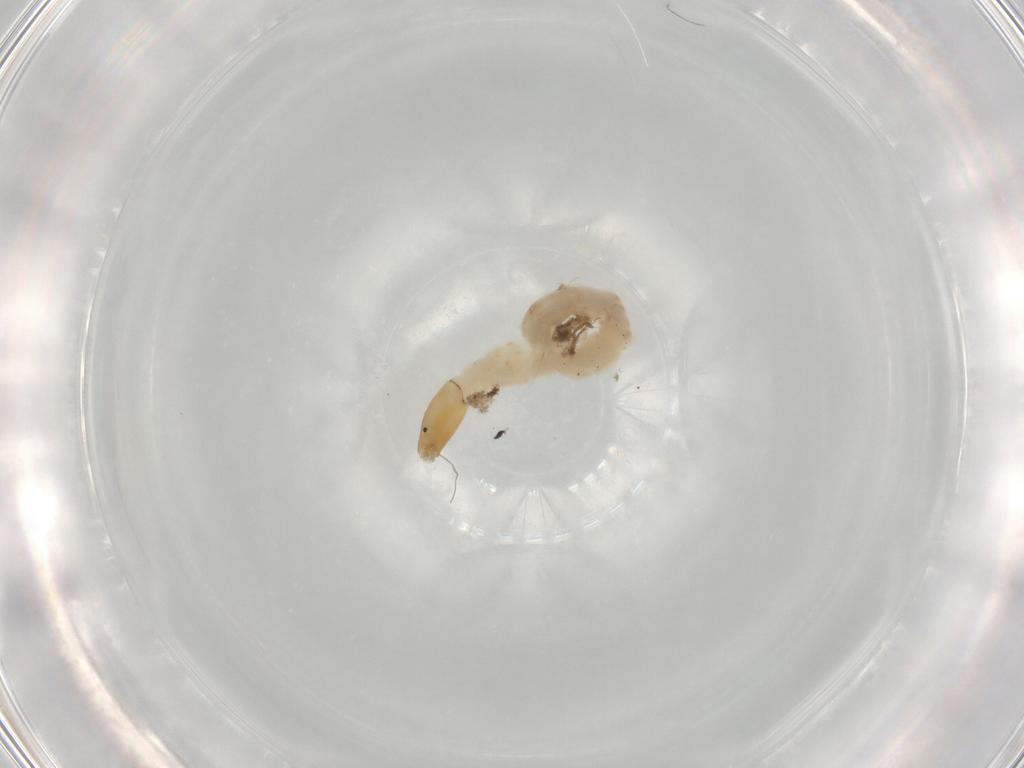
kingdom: Animalia
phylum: Arthropoda
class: Insecta
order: Diptera
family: Chironomidae
